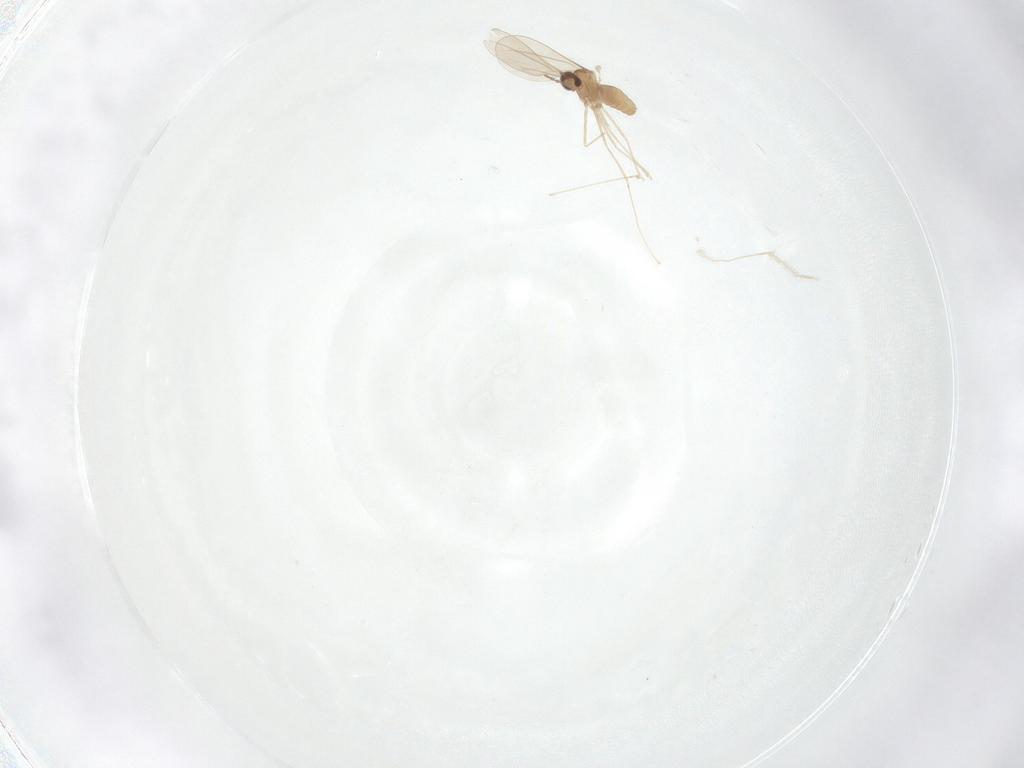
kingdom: Animalia
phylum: Arthropoda
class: Insecta
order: Diptera
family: Cecidomyiidae
